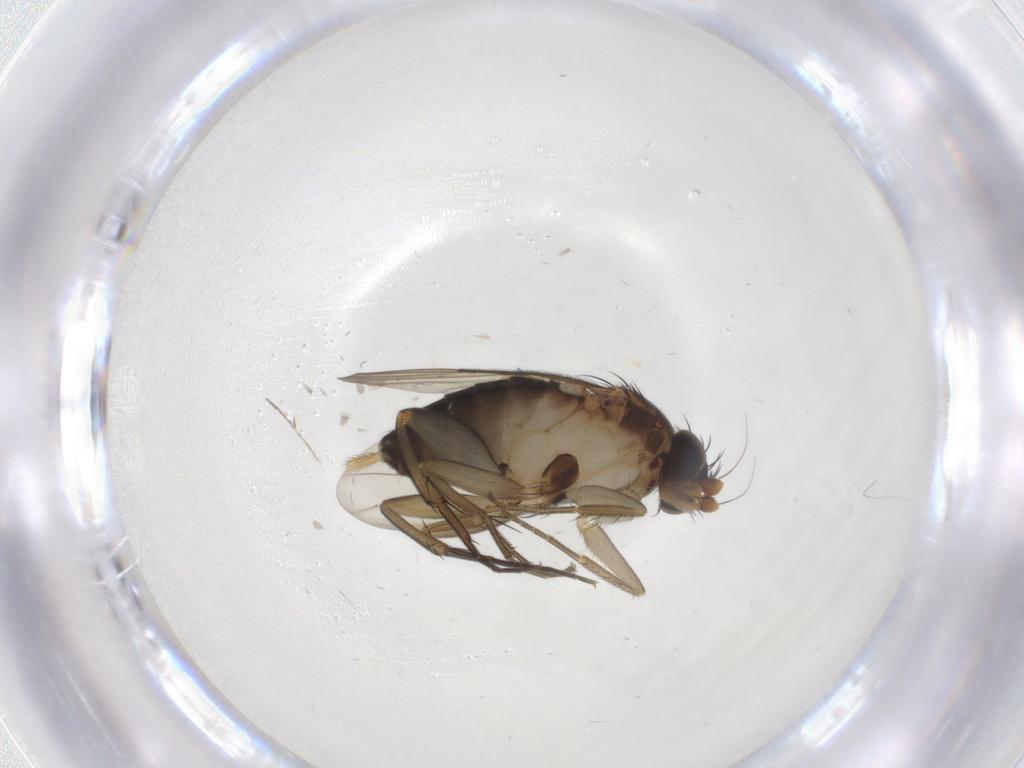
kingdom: Animalia
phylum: Arthropoda
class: Insecta
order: Diptera
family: Phoridae
